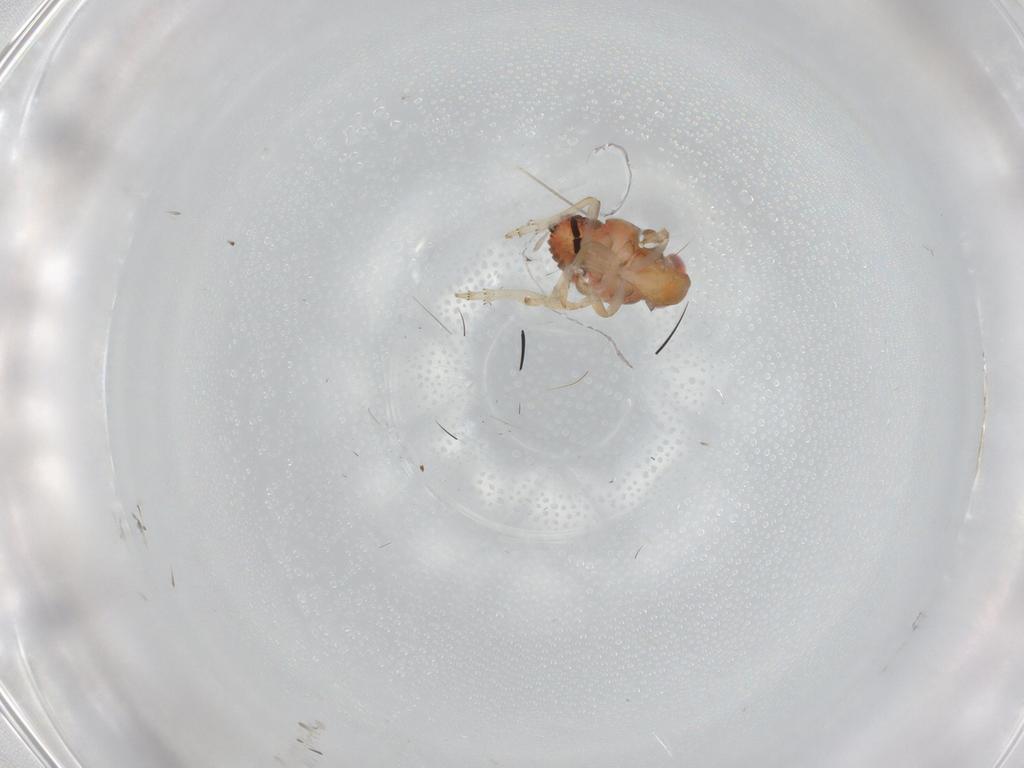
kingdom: Animalia
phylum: Arthropoda
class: Insecta
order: Hemiptera
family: Issidae
